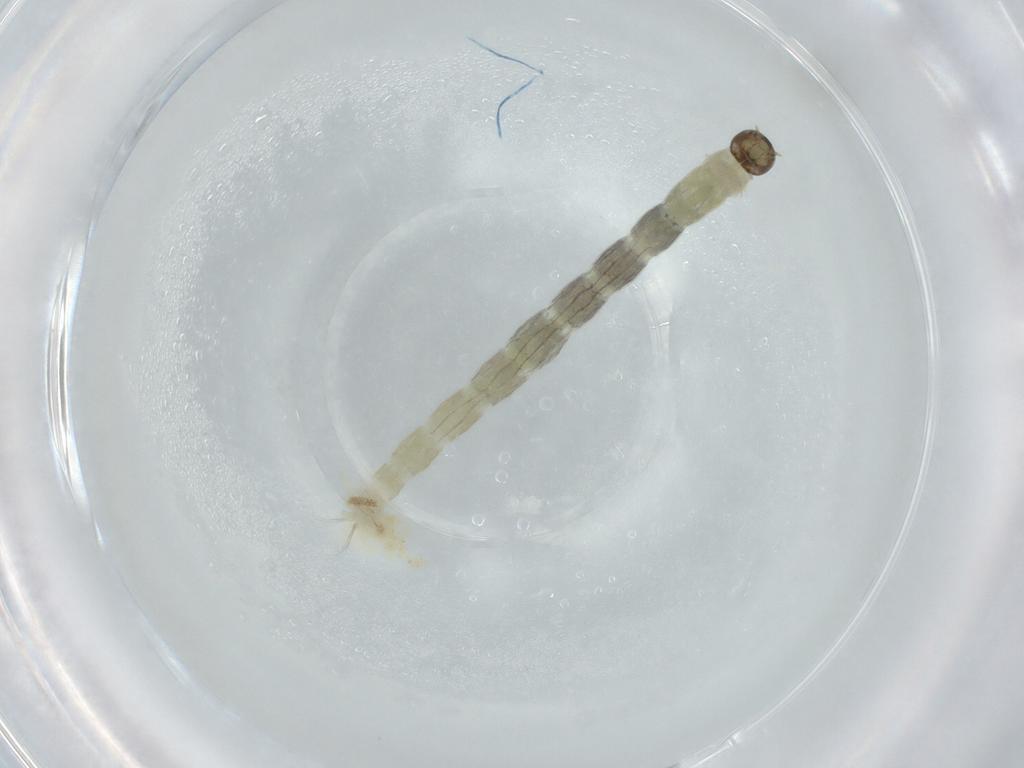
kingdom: Animalia
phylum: Arthropoda
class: Insecta
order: Diptera
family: Chironomidae
